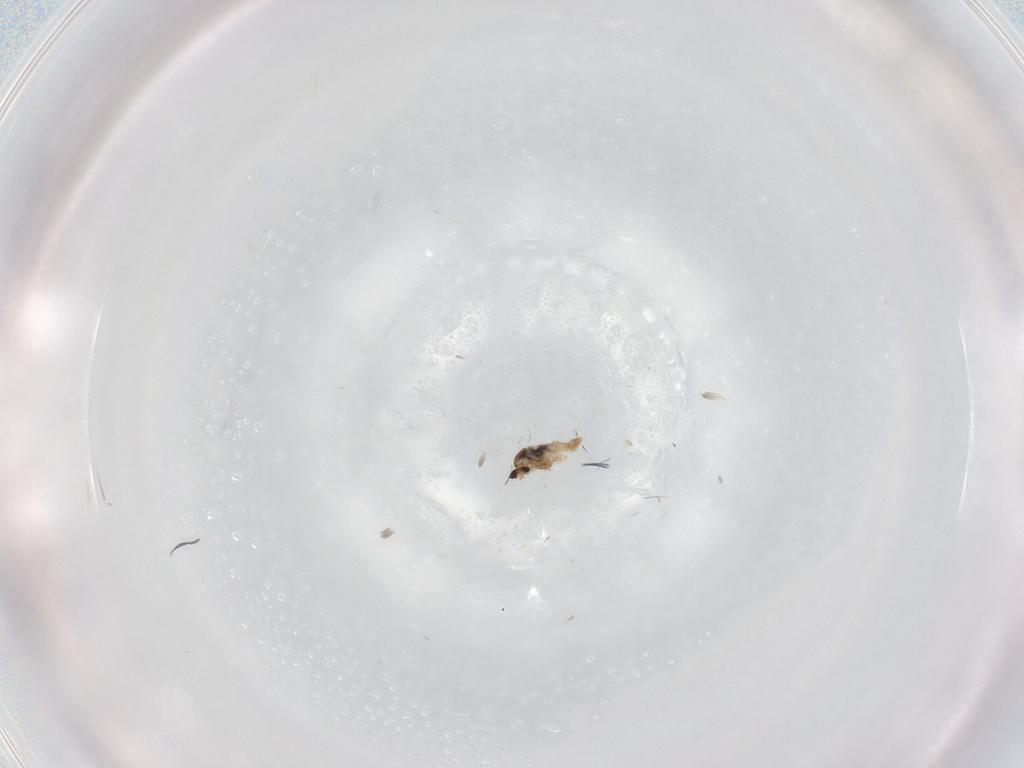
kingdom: Animalia
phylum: Arthropoda
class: Insecta
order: Diptera
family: Cecidomyiidae
